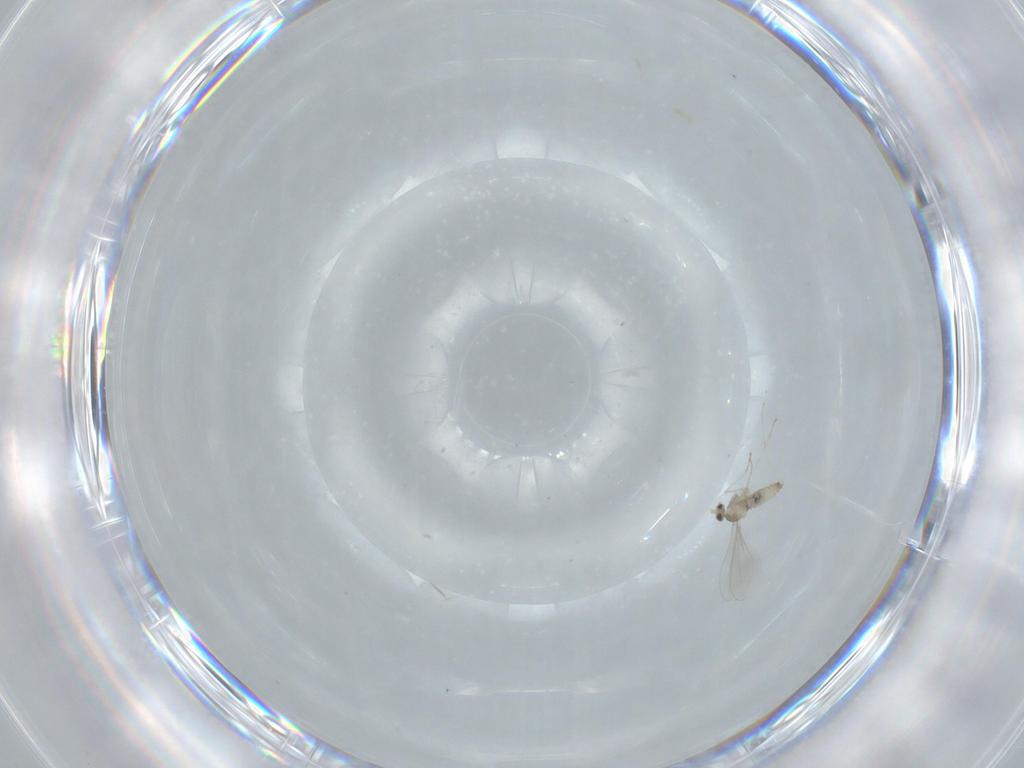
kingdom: Animalia
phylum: Arthropoda
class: Insecta
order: Diptera
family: Cecidomyiidae
